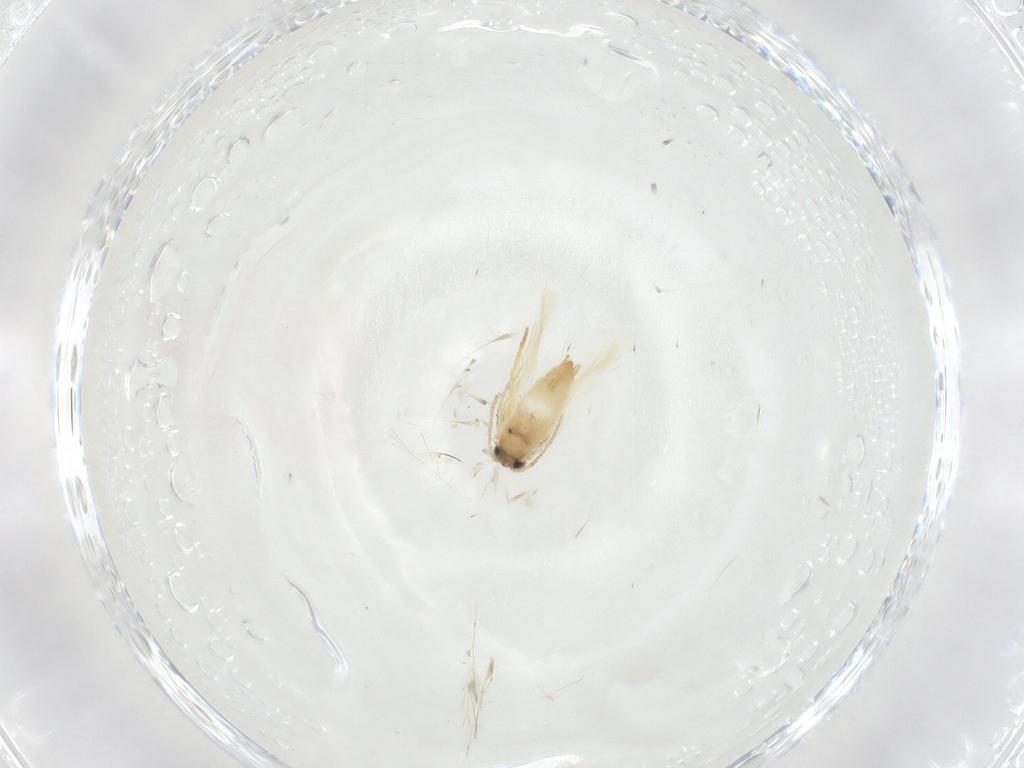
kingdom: Animalia
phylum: Arthropoda
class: Insecta
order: Lepidoptera
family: Crambidae
